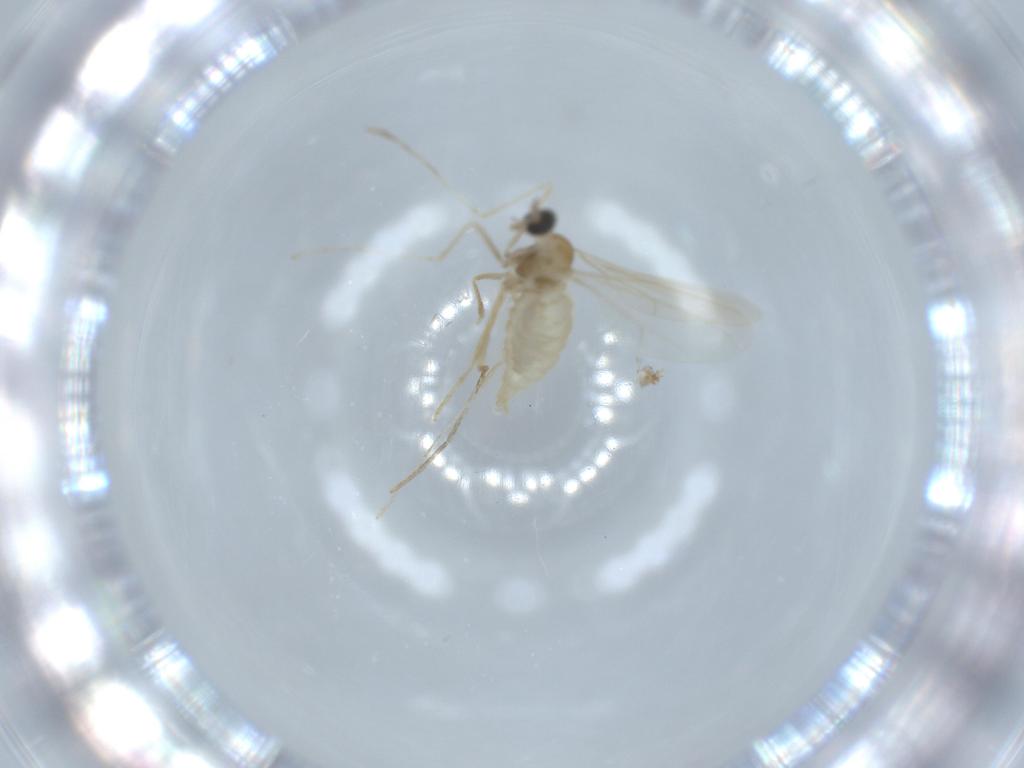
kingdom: Animalia
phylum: Arthropoda
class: Insecta
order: Diptera
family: Cecidomyiidae
